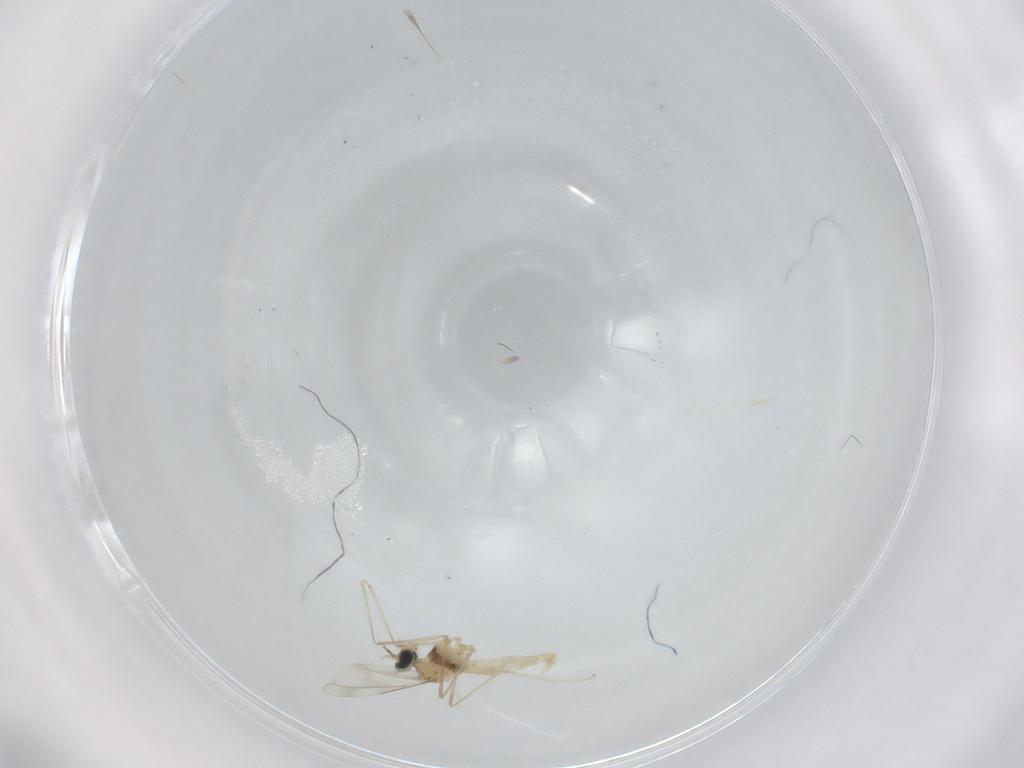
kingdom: Animalia
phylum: Arthropoda
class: Insecta
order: Diptera
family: Cecidomyiidae
